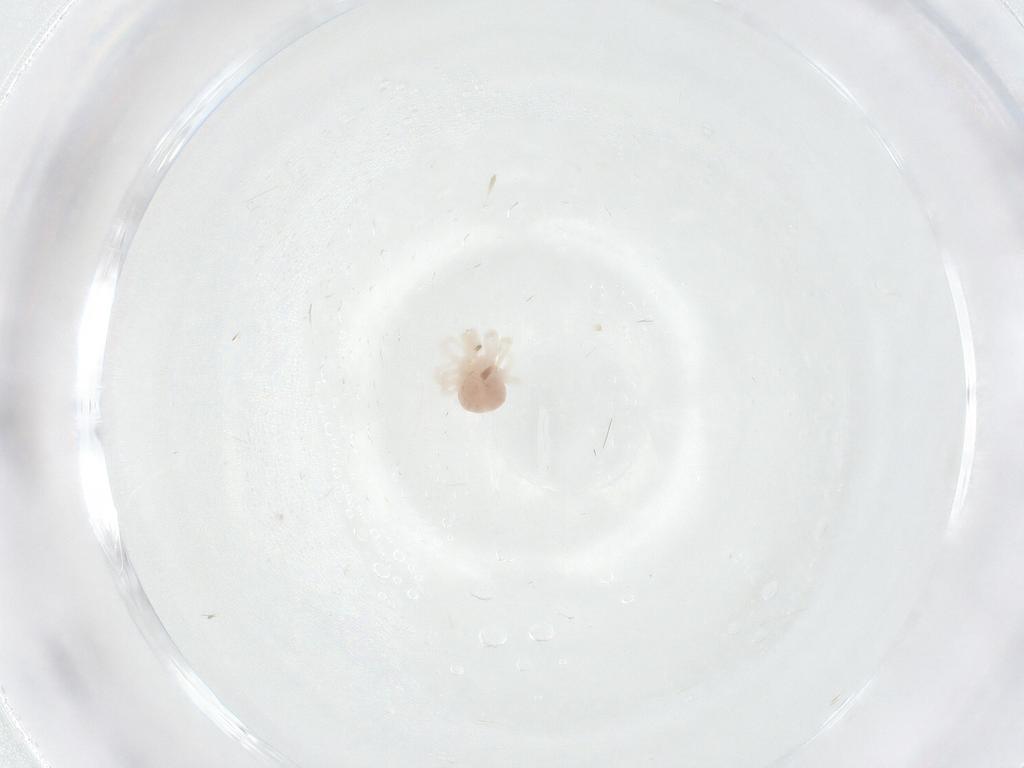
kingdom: Animalia
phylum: Arthropoda
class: Arachnida
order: Trombidiformes
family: Anystidae
